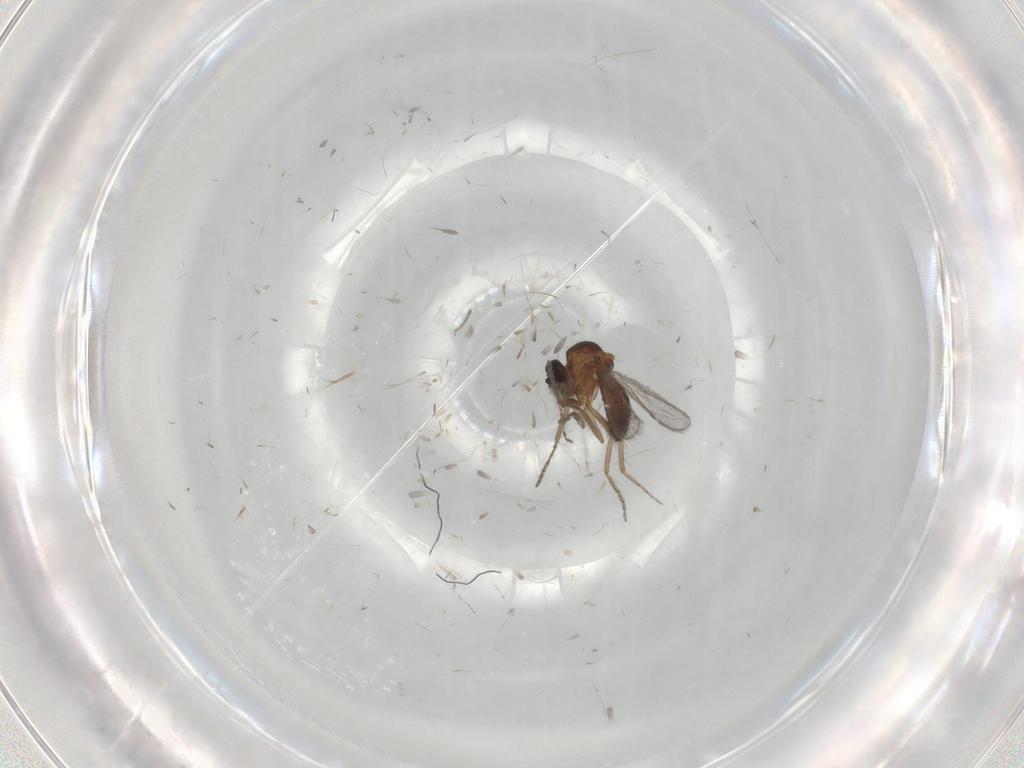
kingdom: Animalia
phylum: Arthropoda
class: Insecta
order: Diptera
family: Ceratopogonidae
